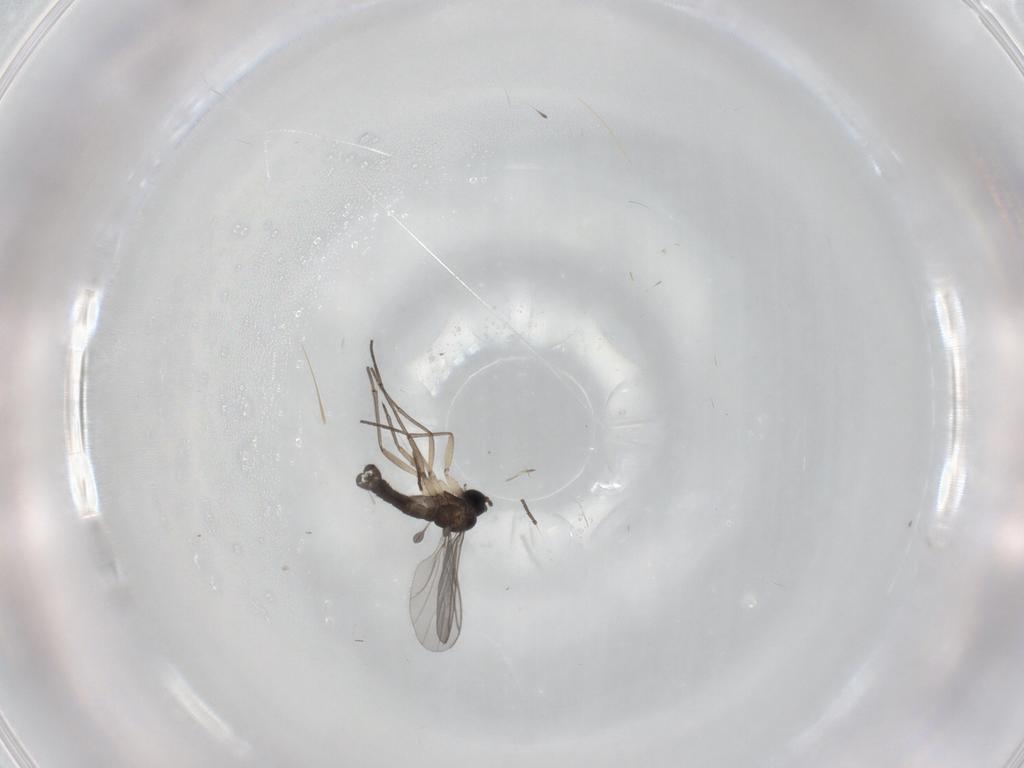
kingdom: Animalia
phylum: Arthropoda
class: Insecta
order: Diptera
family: Sciaridae
